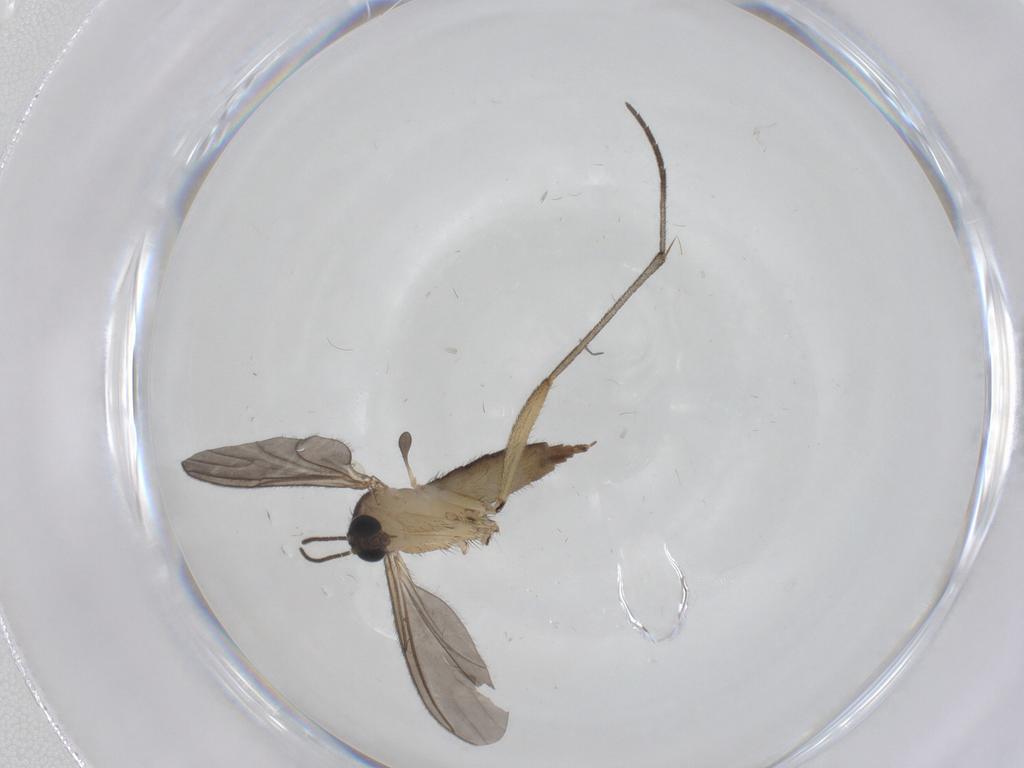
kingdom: Animalia
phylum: Arthropoda
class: Insecta
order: Diptera
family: Sciaridae
